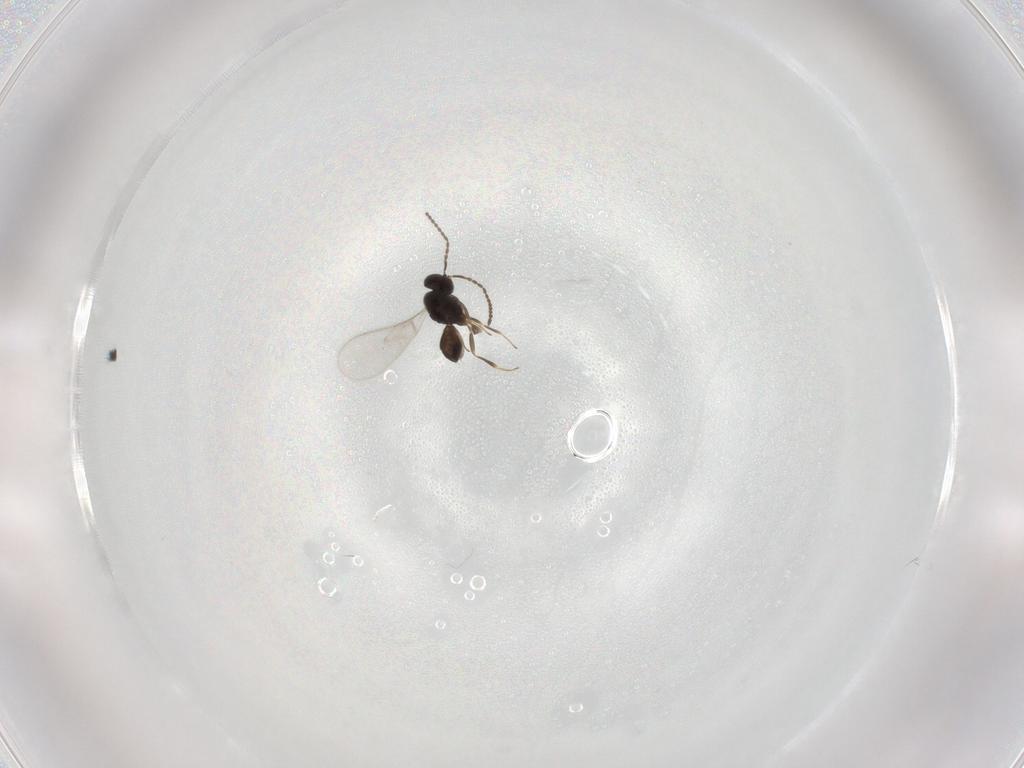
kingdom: Animalia
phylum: Arthropoda
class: Insecta
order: Hymenoptera
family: Scelionidae
